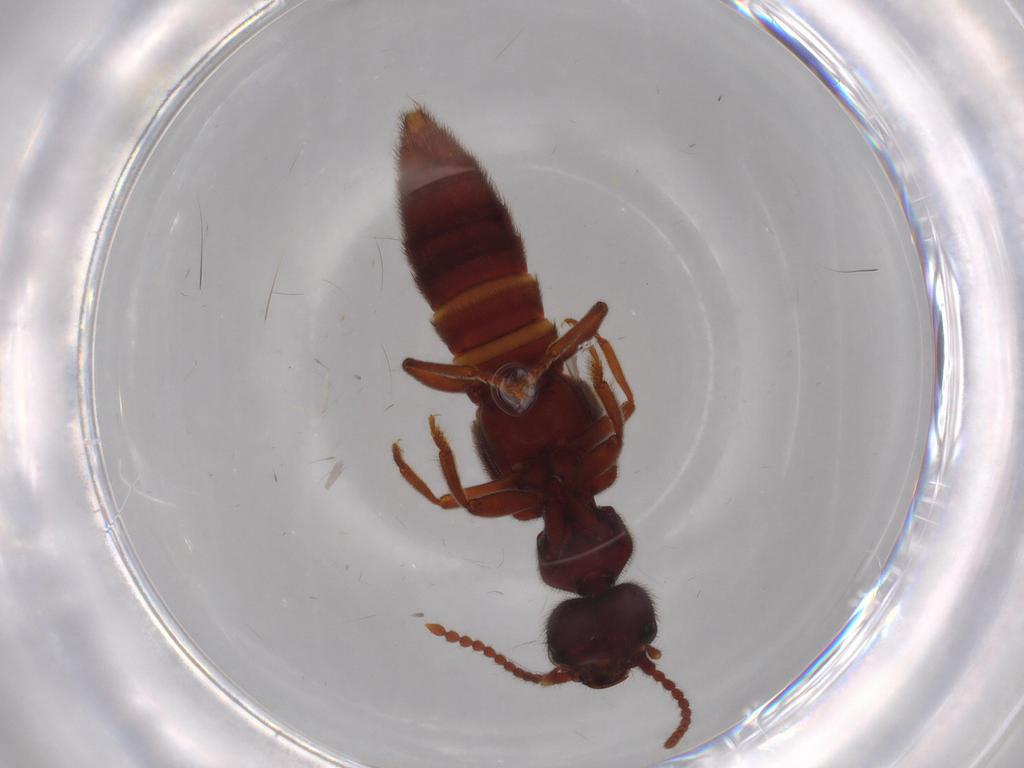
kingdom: Animalia
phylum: Arthropoda
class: Insecta
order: Coleoptera
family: Staphylinidae
